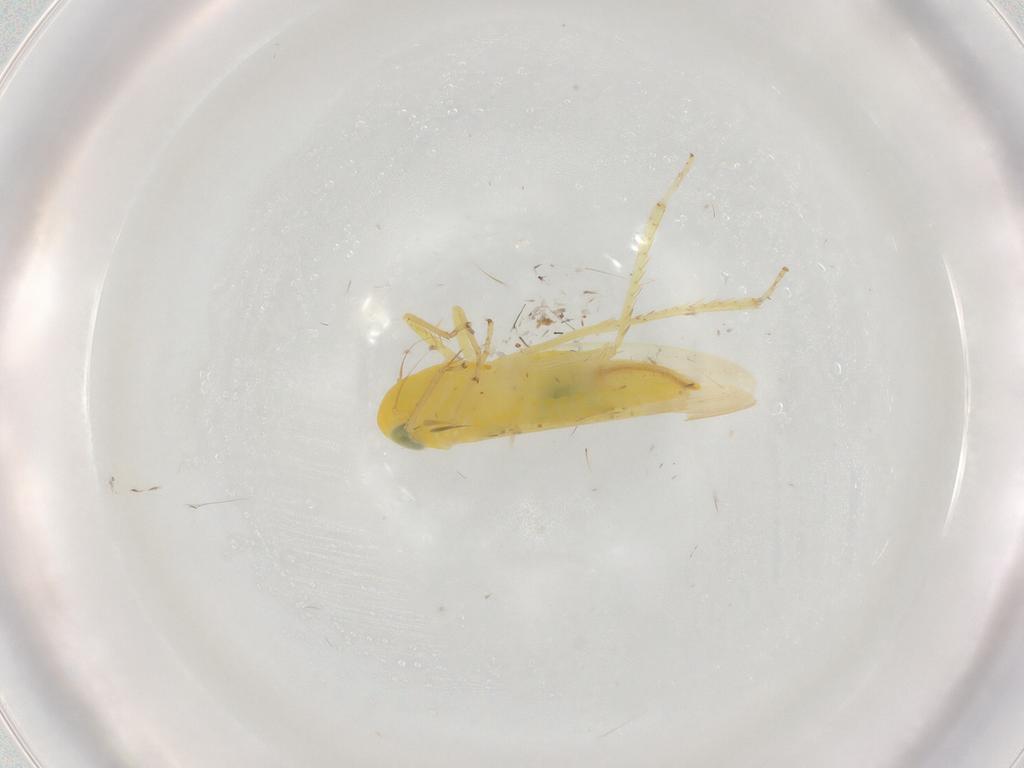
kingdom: Animalia
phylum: Arthropoda
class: Insecta
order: Hemiptera
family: Cicadellidae
